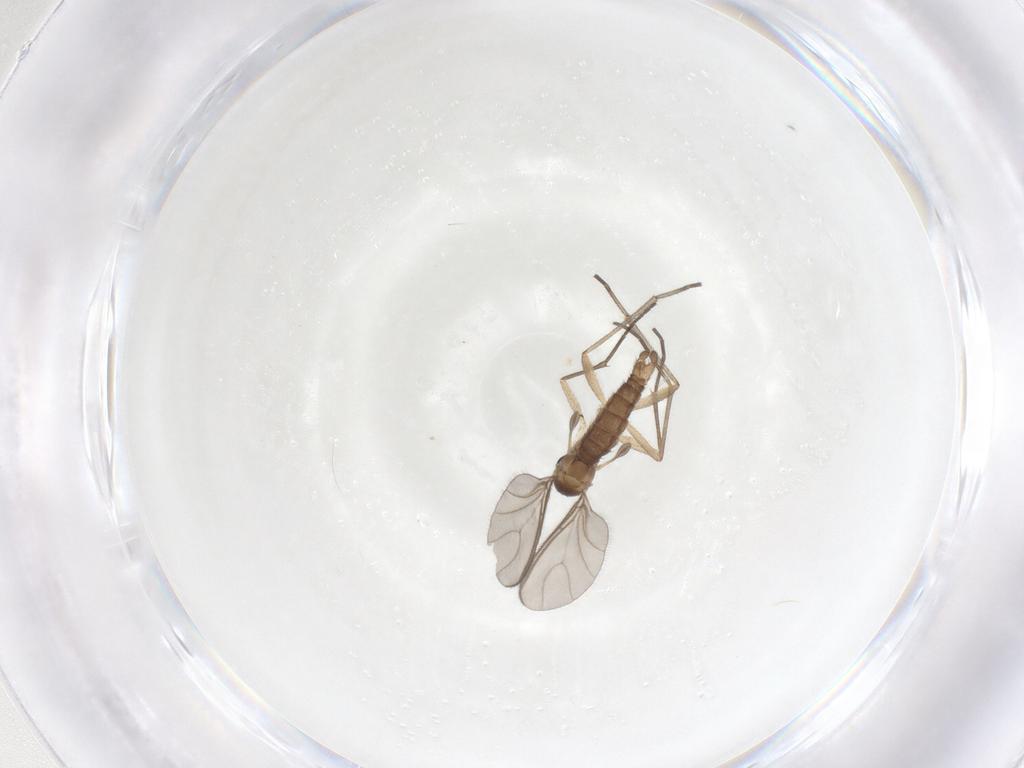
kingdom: Animalia
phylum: Arthropoda
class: Insecta
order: Diptera
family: Sciaridae
